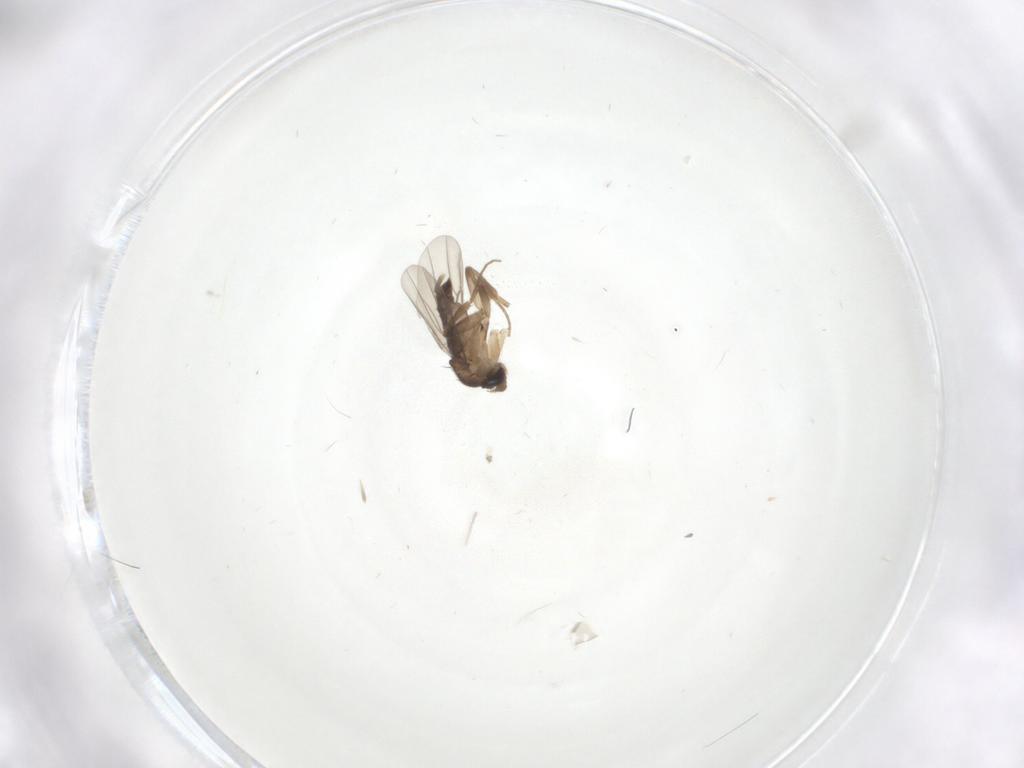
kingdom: Animalia
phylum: Arthropoda
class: Insecta
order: Diptera
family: Phoridae
